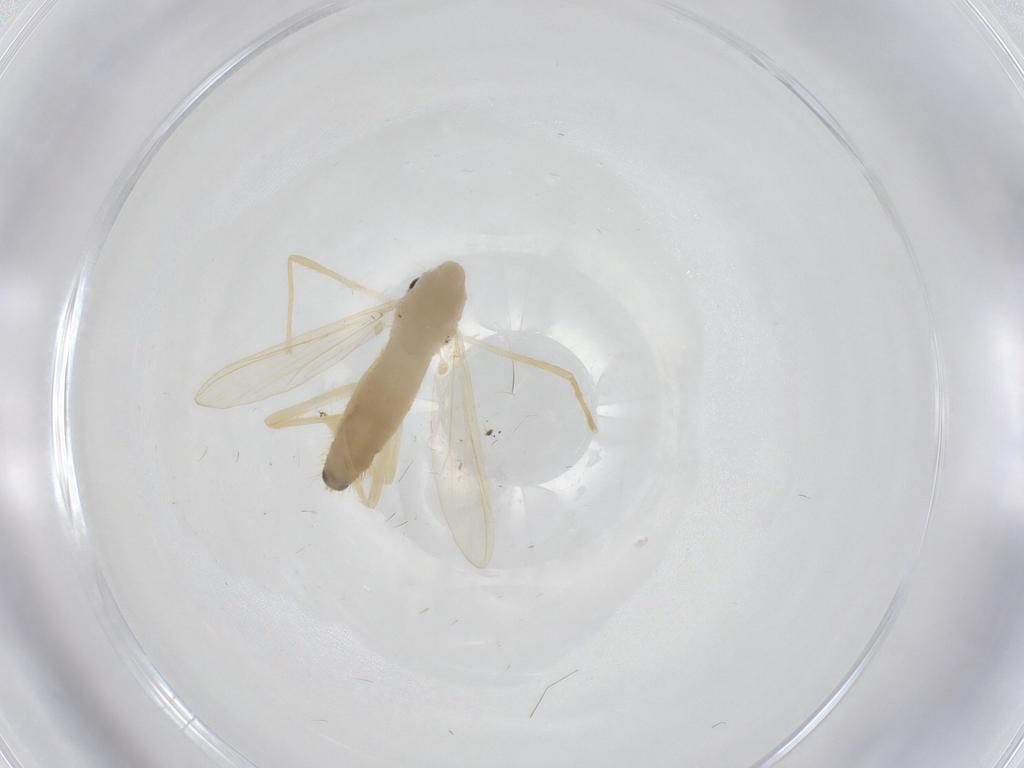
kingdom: Animalia
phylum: Arthropoda
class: Insecta
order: Diptera
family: Chironomidae
